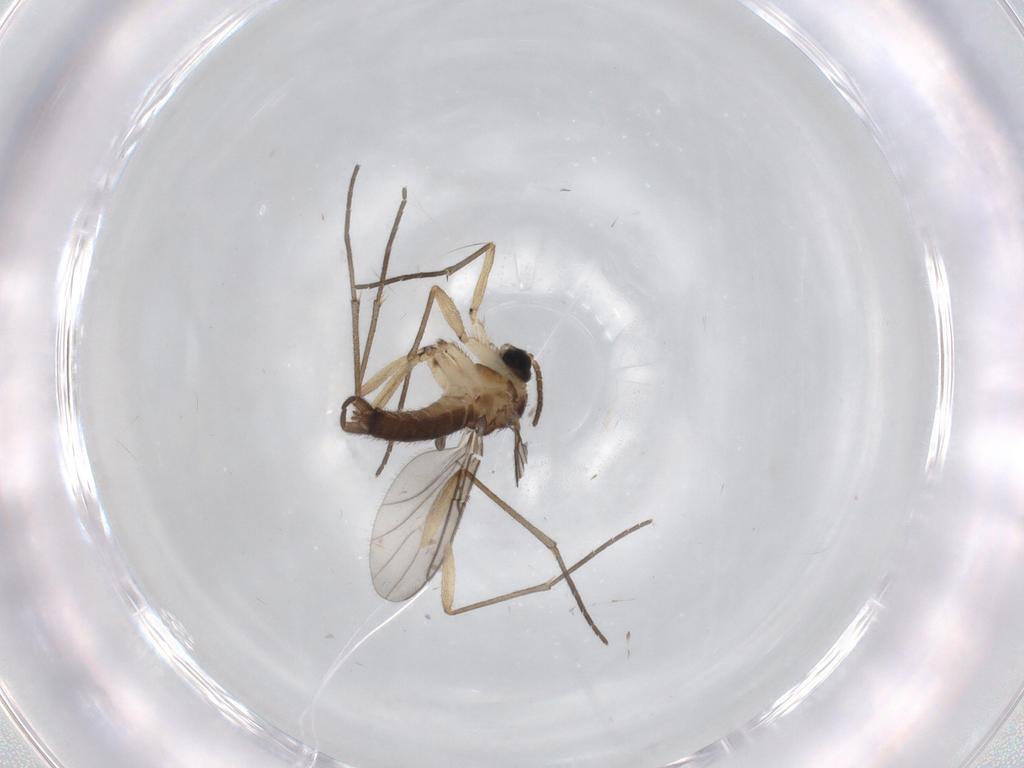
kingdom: Animalia
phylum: Arthropoda
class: Insecta
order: Diptera
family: Sciaridae
